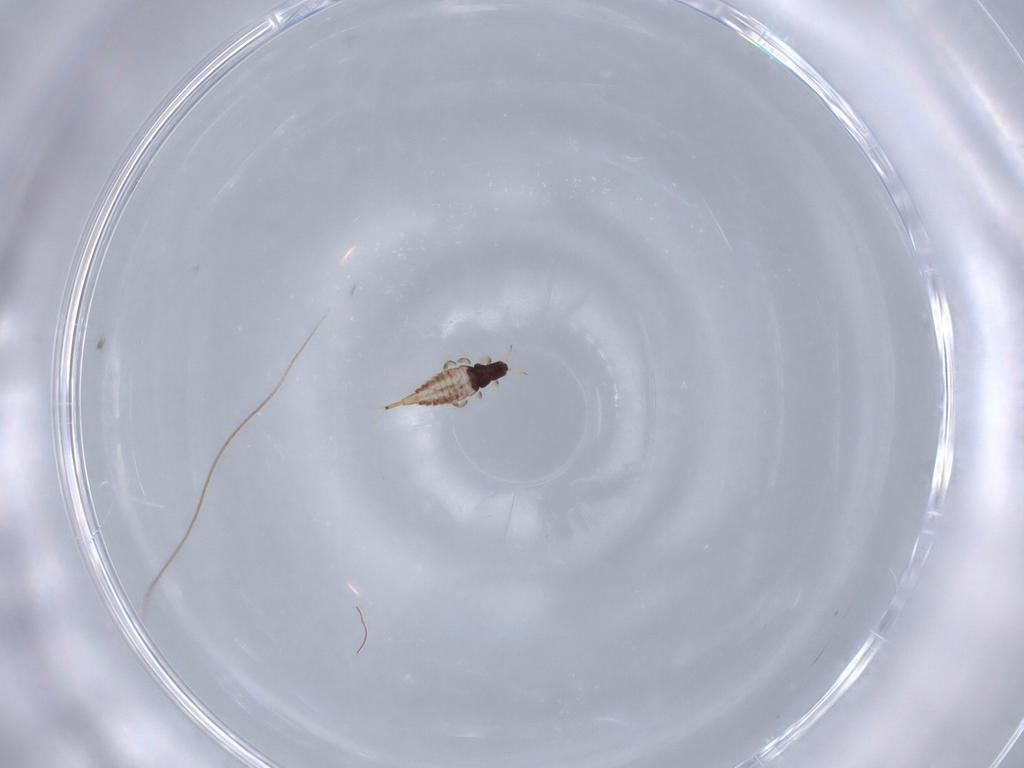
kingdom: Animalia
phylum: Arthropoda
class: Insecta
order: Thysanoptera
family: Phlaeothripidae
